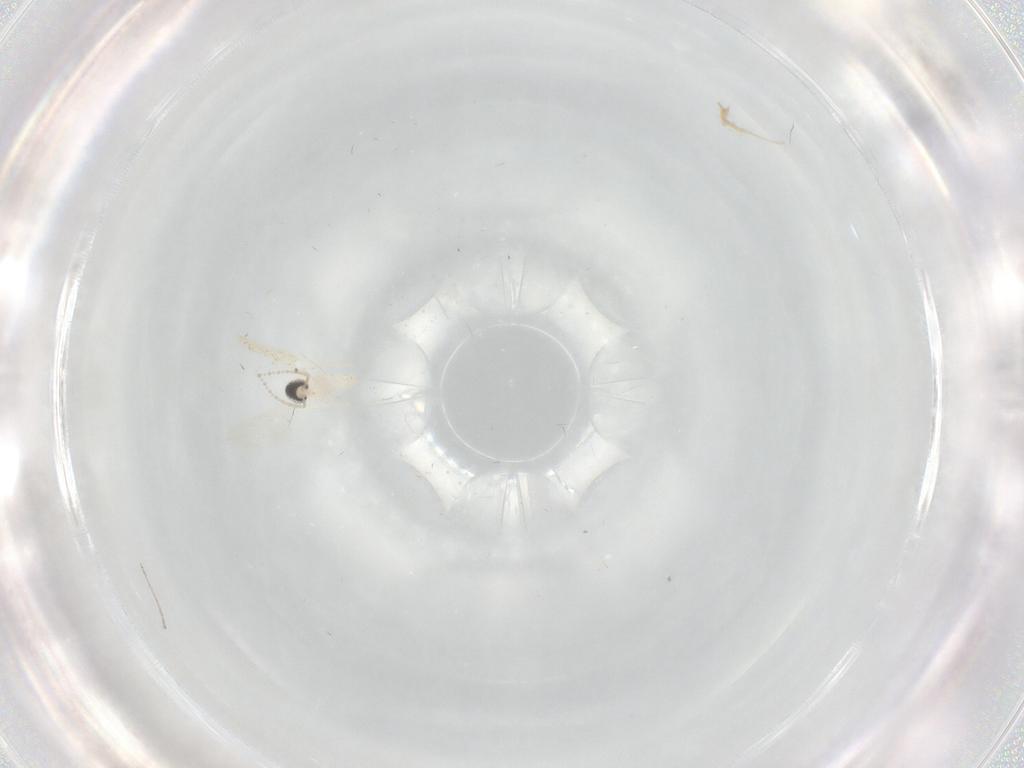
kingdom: Animalia
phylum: Arthropoda
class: Insecta
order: Diptera
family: Cecidomyiidae
